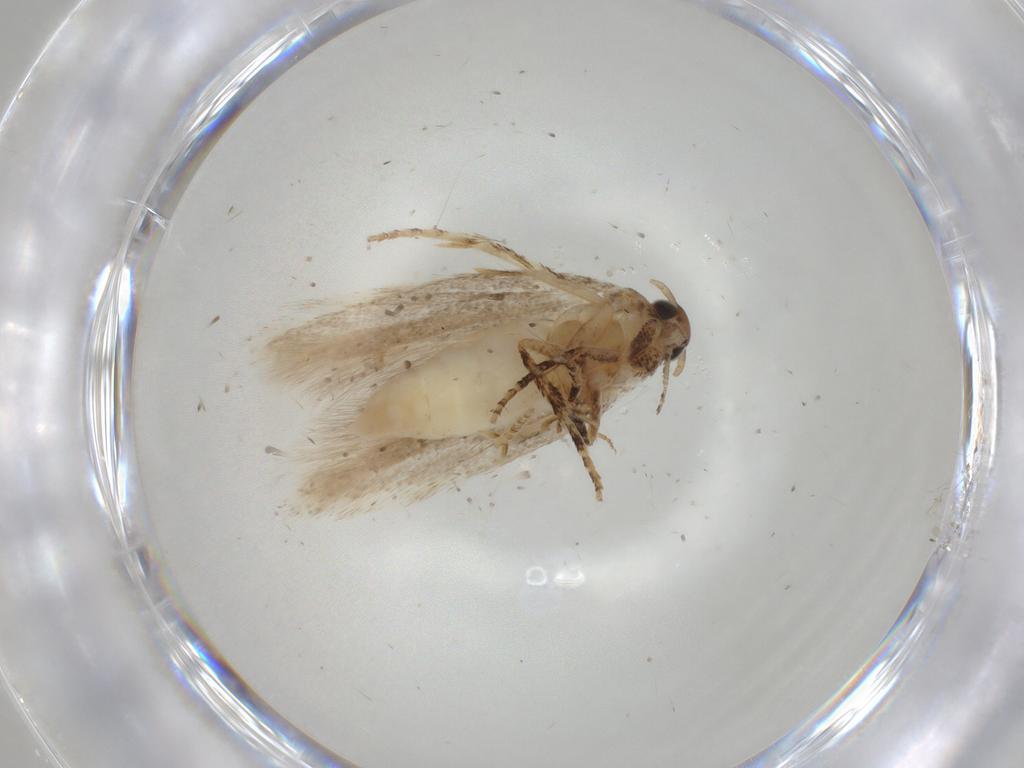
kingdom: Animalia
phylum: Arthropoda
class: Insecta
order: Lepidoptera
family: Gelechiidae
